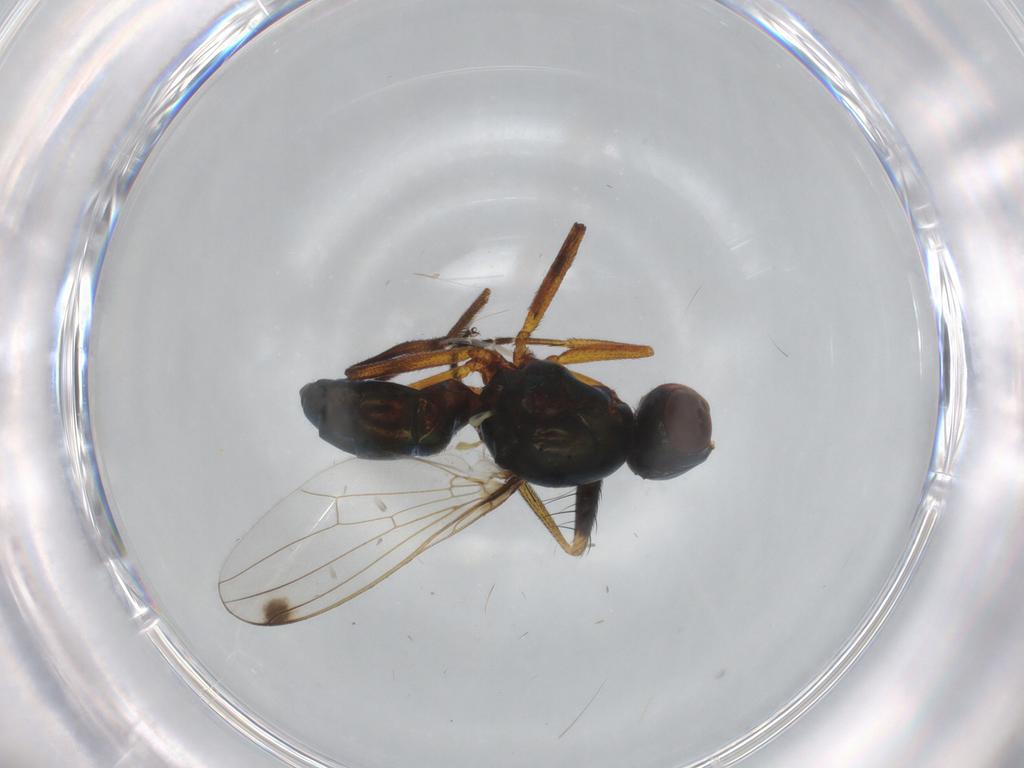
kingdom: Animalia
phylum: Arthropoda
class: Insecta
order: Diptera
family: Sepsidae
